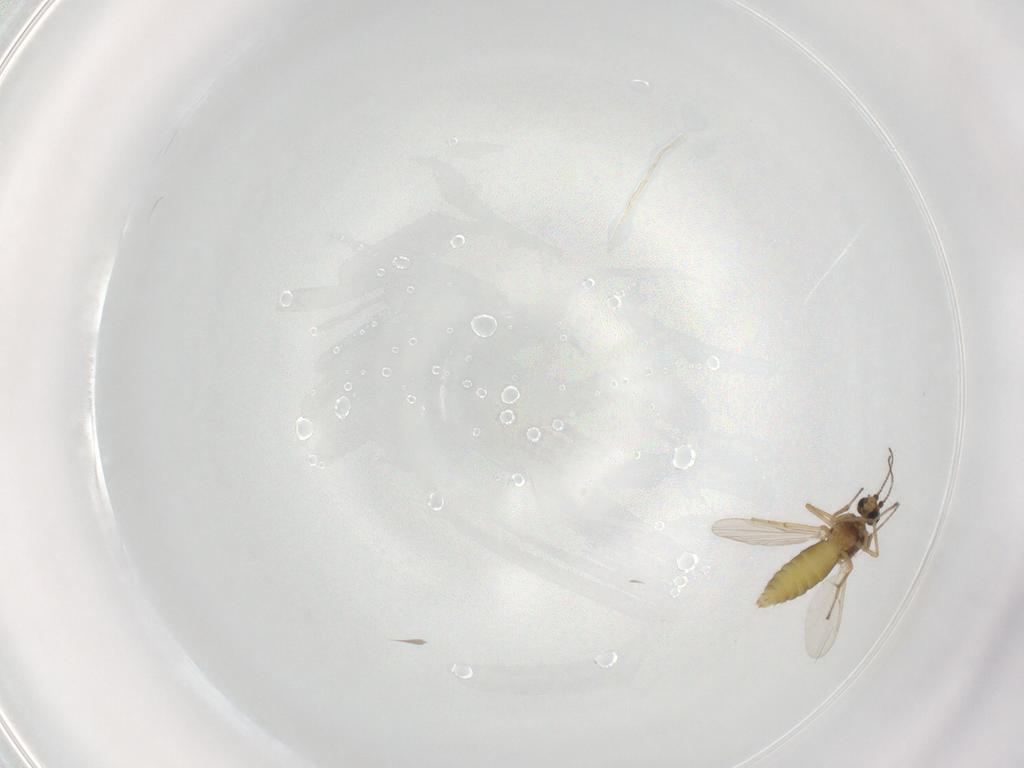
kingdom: Animalia
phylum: Arthropoda
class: Insecta
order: Diptera
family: Ceratopogonidae
